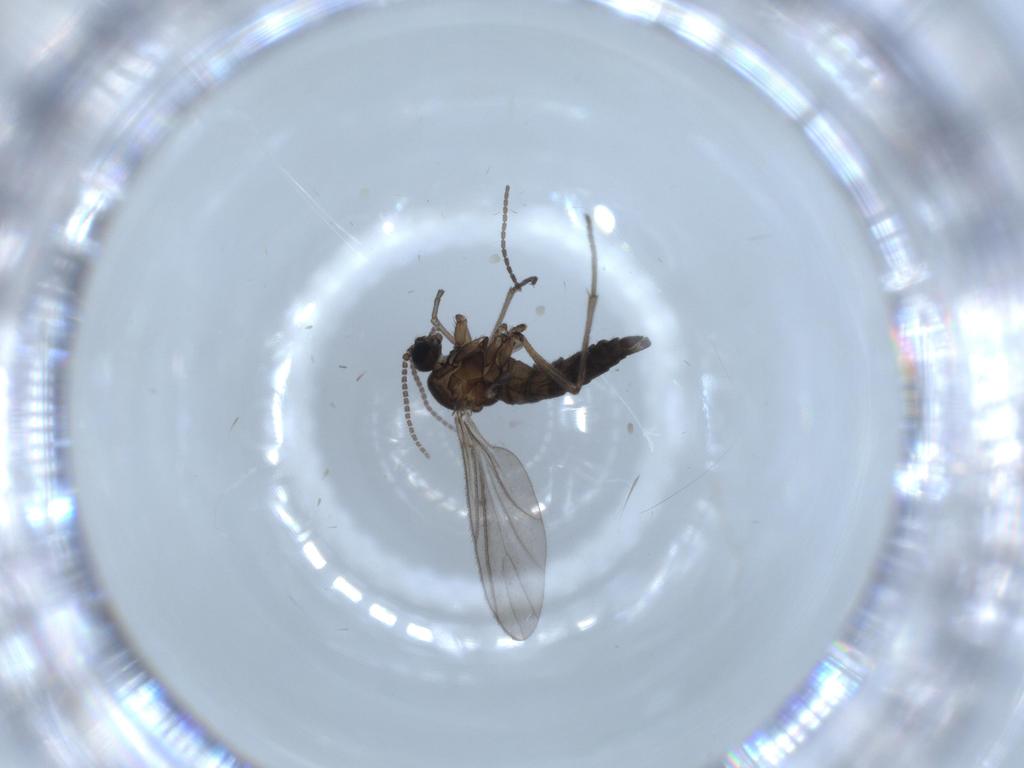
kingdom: Animalia
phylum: Arthropoda
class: Insecta
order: Diptera
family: Sciaridae
